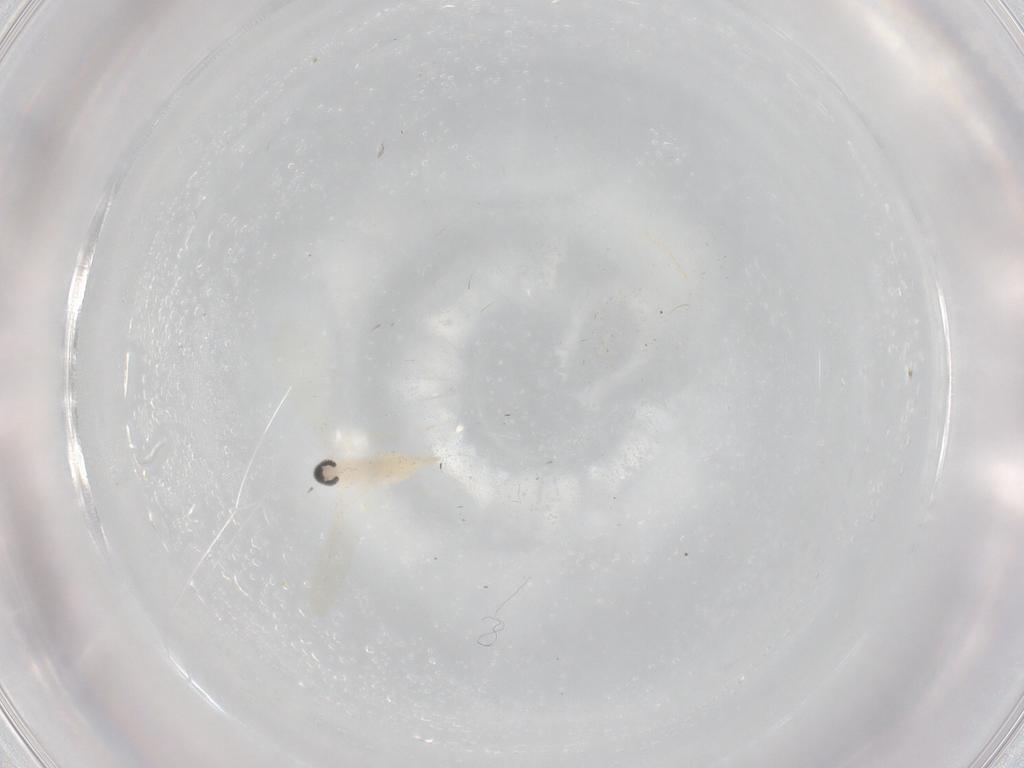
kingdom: Animalia
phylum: Arthropoda
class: Insecta
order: Diptera
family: Cecidomyiidae
